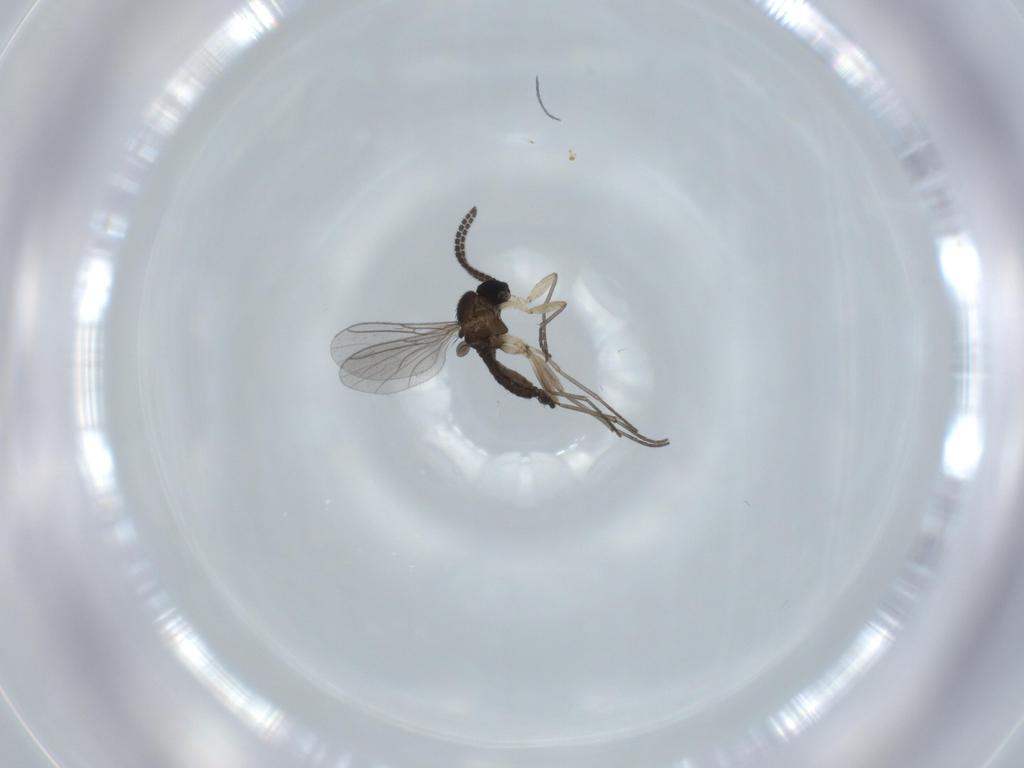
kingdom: Animalia
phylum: Arthropoda
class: Insecta
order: Diptera
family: Sciaridae
